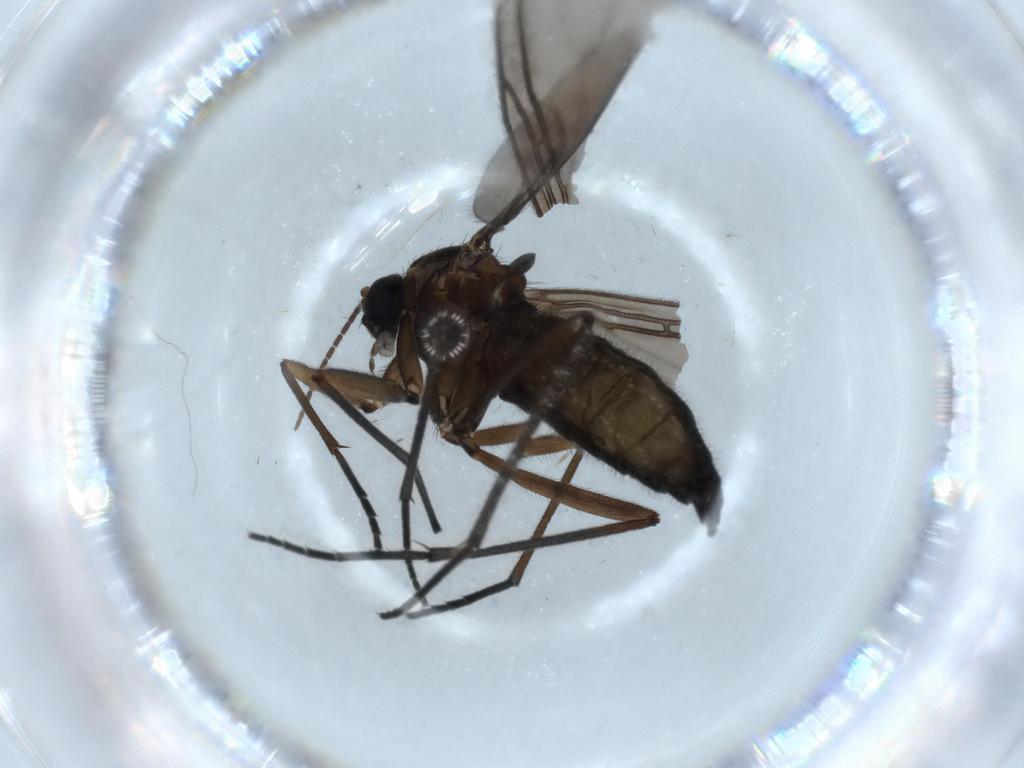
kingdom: Animalia
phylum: Arthropoda
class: Insecta
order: Diptera
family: Sciaridae
